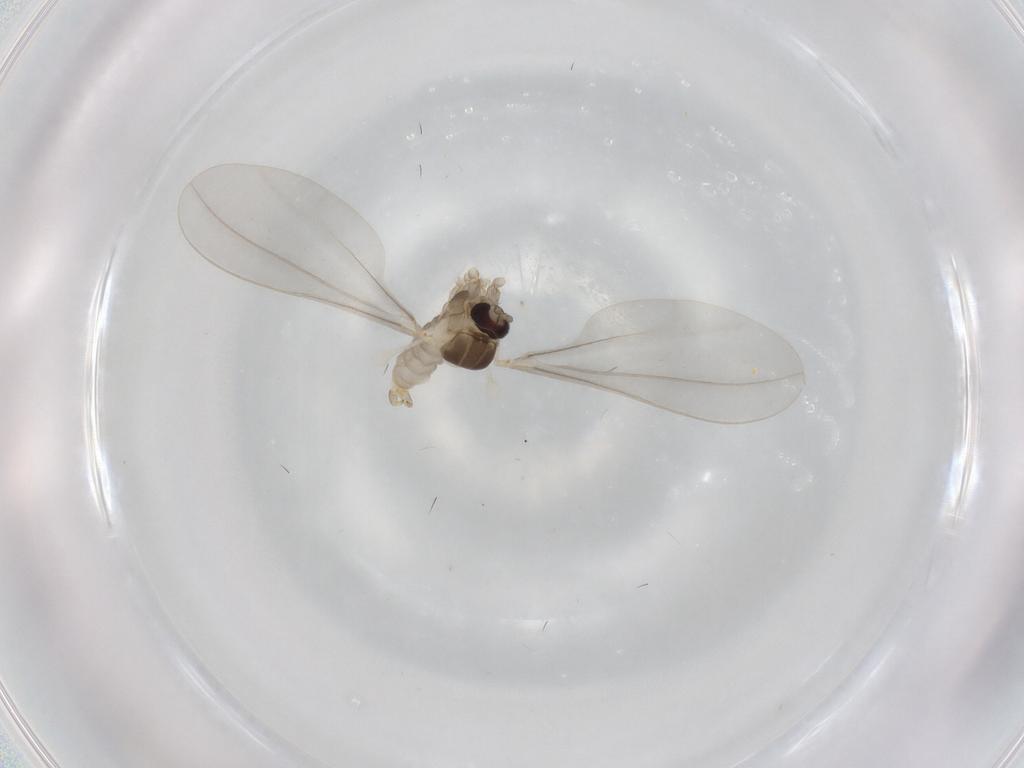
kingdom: Animalia
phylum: Arthropoda
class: Insecta
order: Diptera
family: Cecidomyiidae
